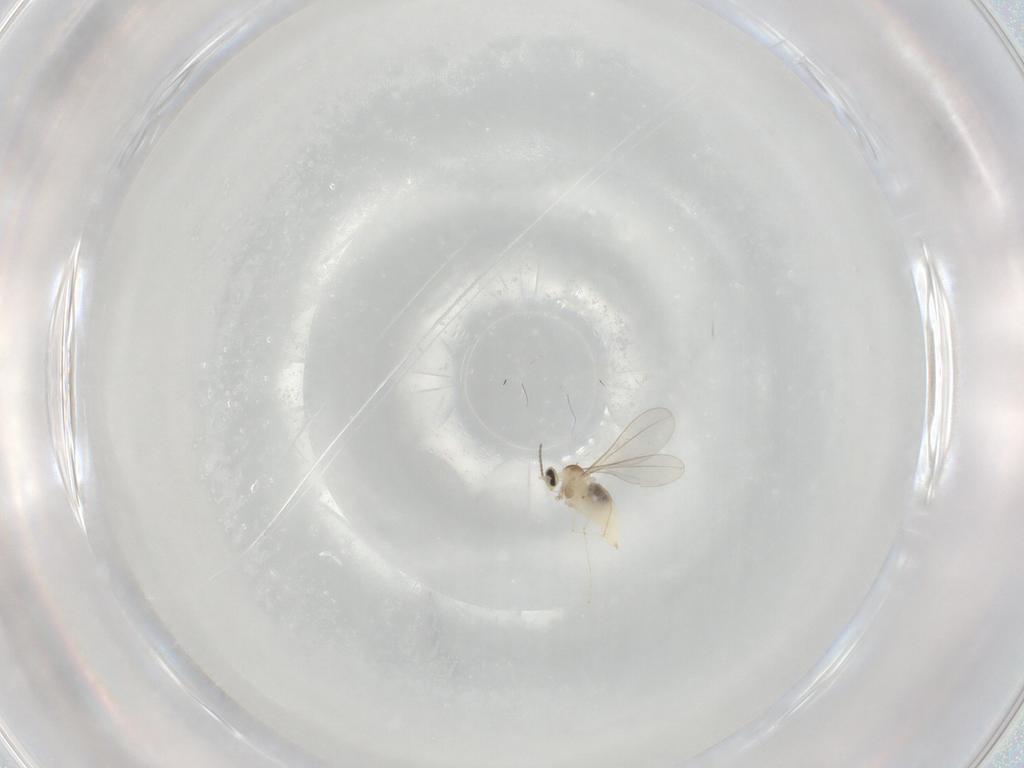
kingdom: Animalia
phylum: Arthropoda
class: Insecta
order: Diptera
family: Cecidomyiidae
